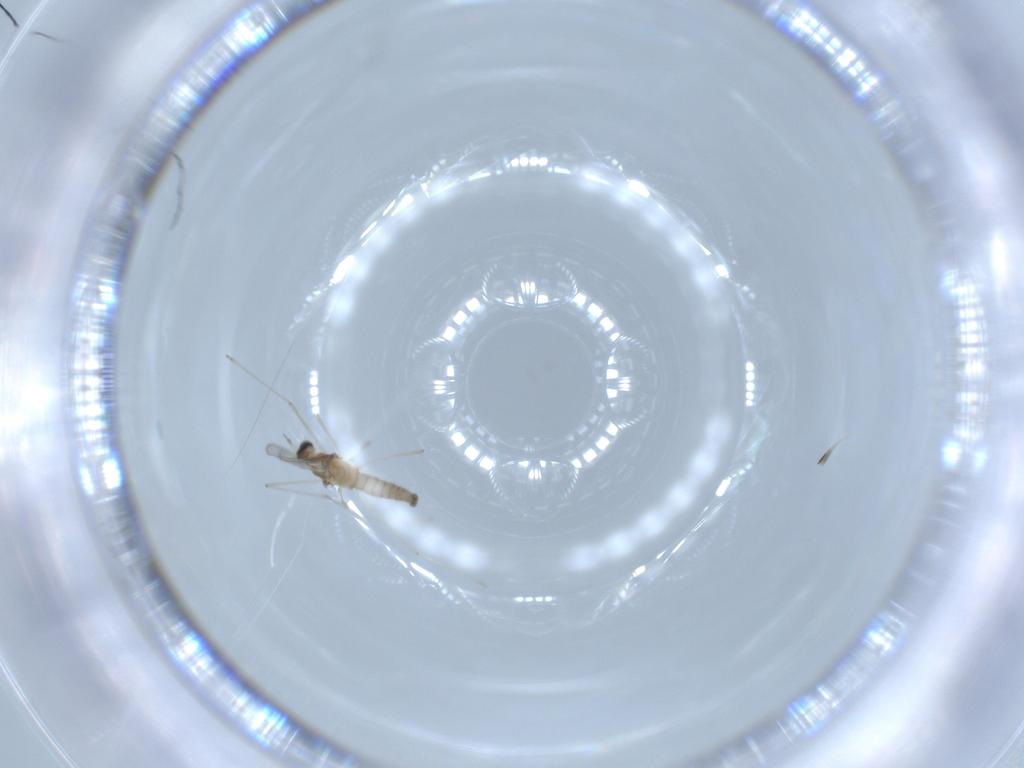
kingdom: Animalia
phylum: Arthropoda
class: Insecta
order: Diptera
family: Cecidomyiidae
